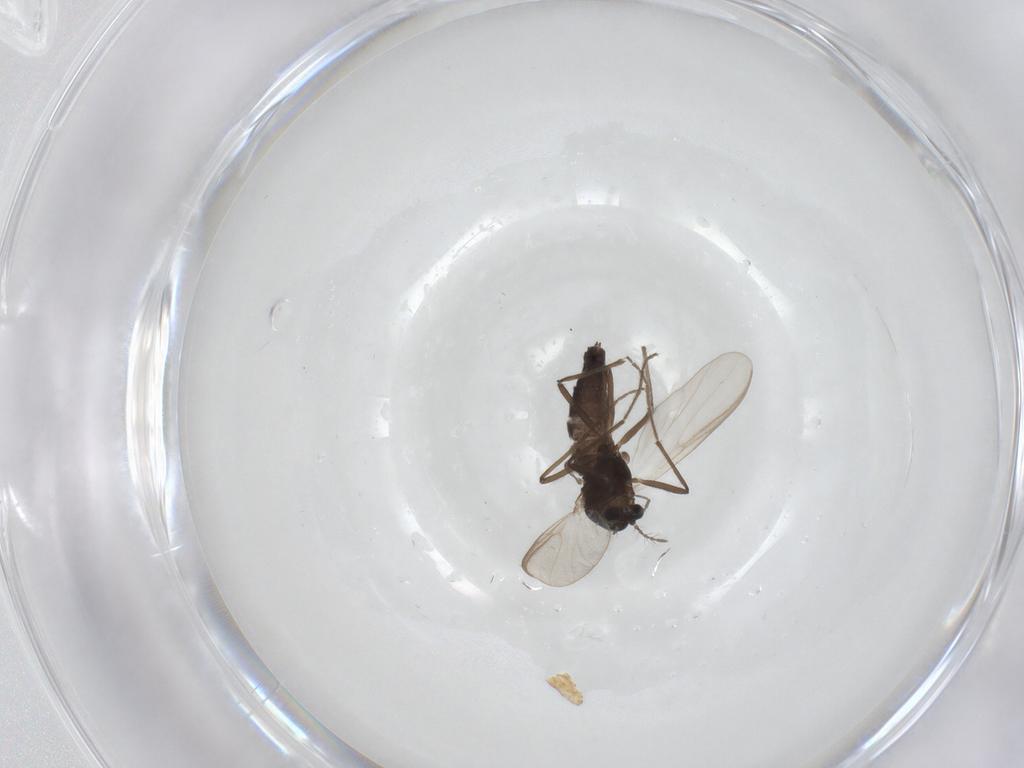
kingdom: Animalia
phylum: Arthropoda
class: Insecta
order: Diptera
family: Chironomidae
